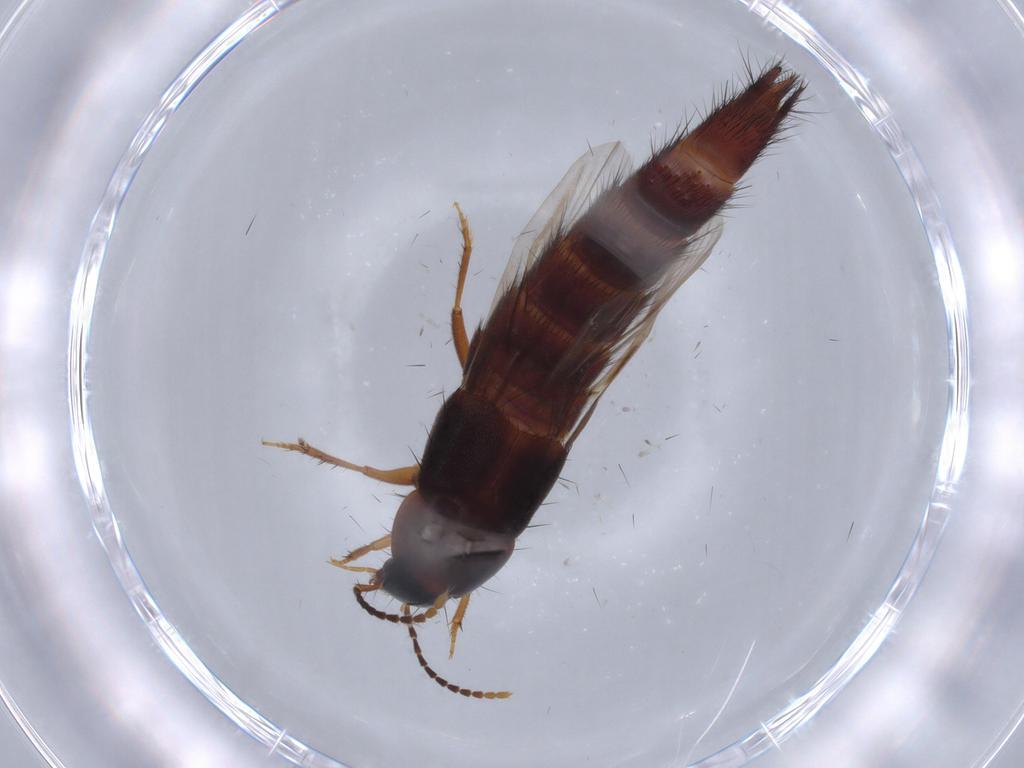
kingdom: Animalia
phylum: Arthropoda
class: Insecta
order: Coleoptera
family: Staphylinidae
